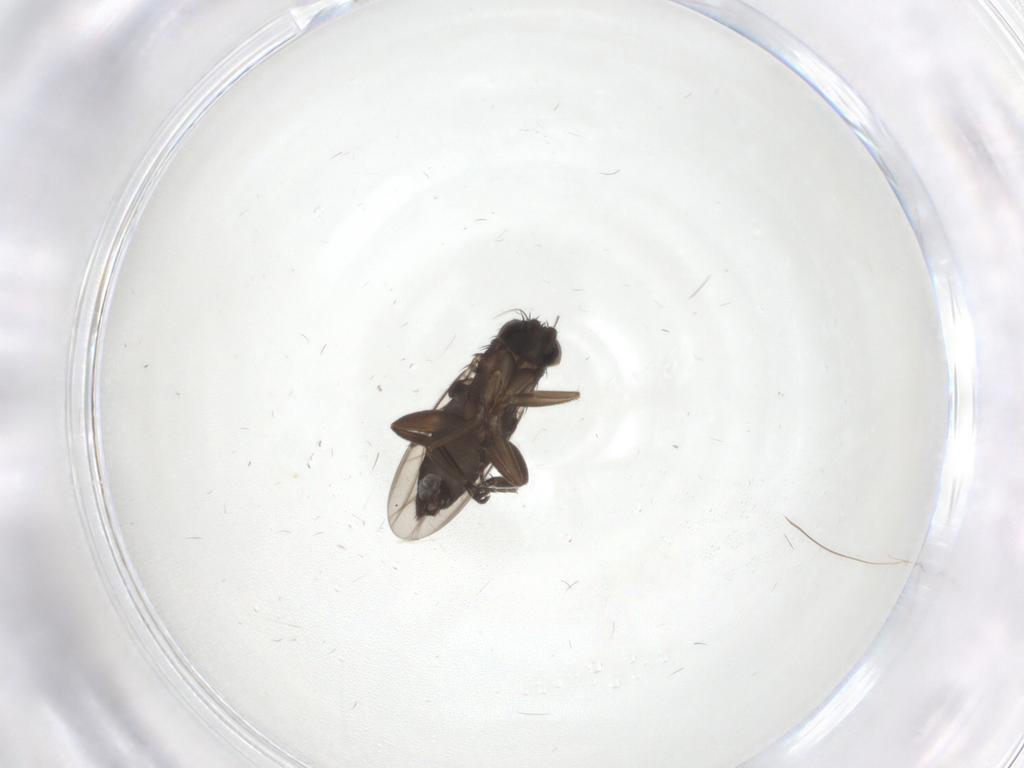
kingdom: Animalia
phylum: Arthropoda
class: Insecta
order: Diptera
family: Phoridae
